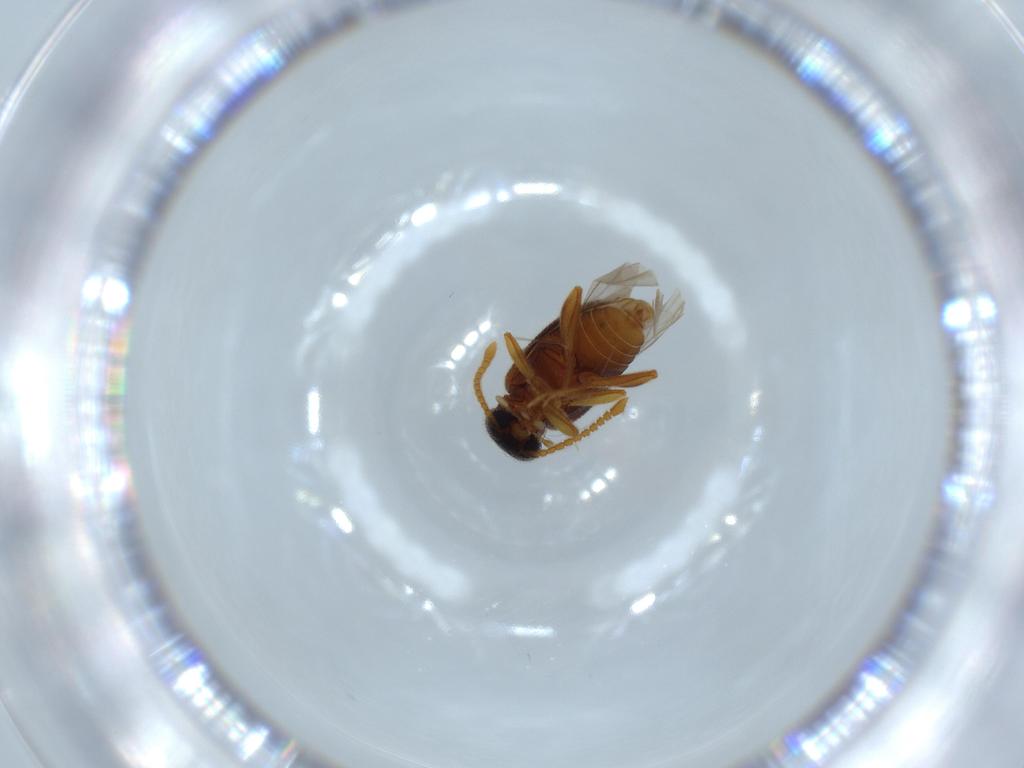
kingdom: Animalia
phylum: Arthropoda
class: Insecta
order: Coleoptera
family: Aderidae
